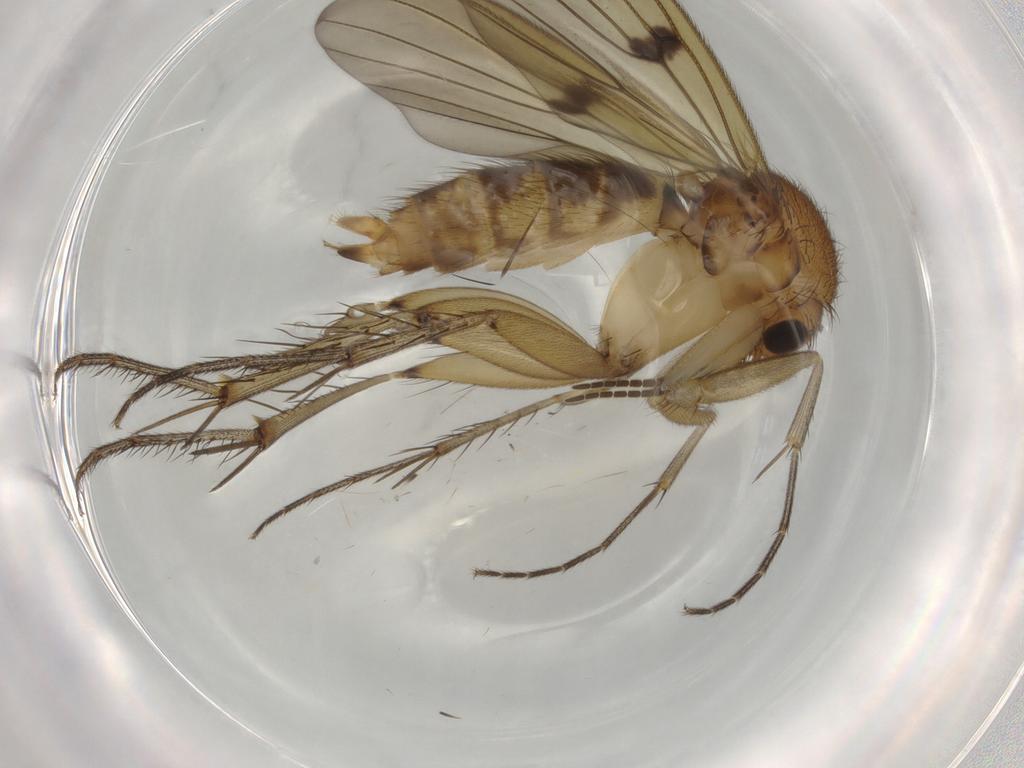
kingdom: Animalia
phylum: Arthropoda
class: Insecta
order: Diptera
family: Mycetophilidae
